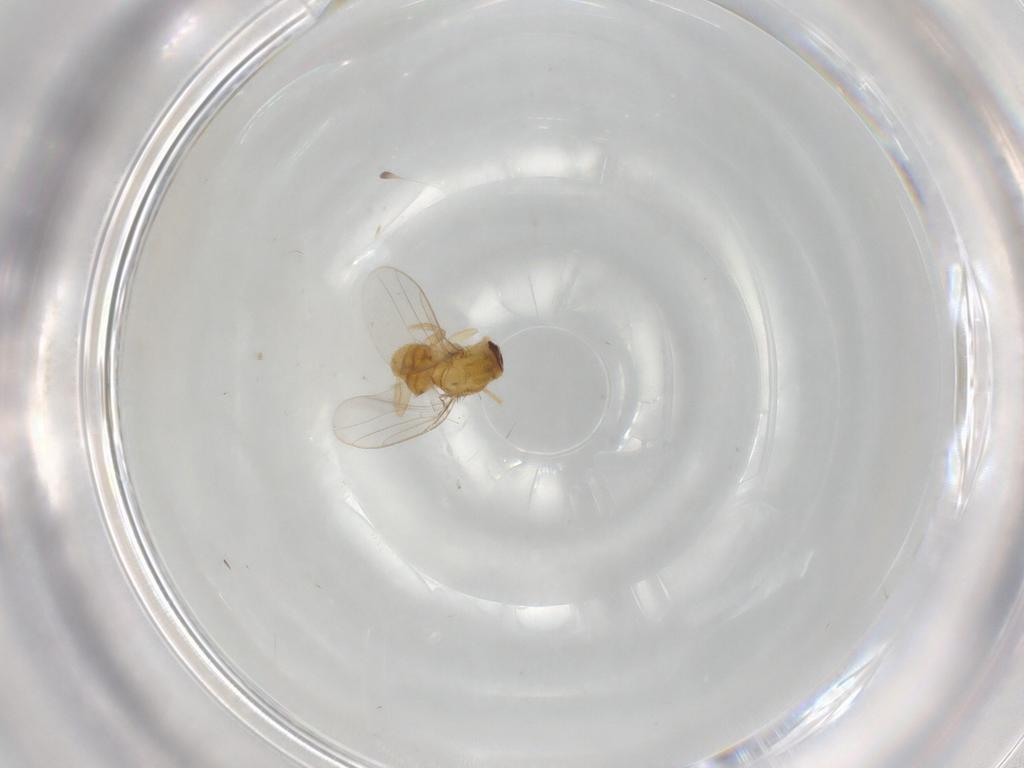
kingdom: Animalia
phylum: Arthropoda
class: Insecta
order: Diptera
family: Chloropidae
